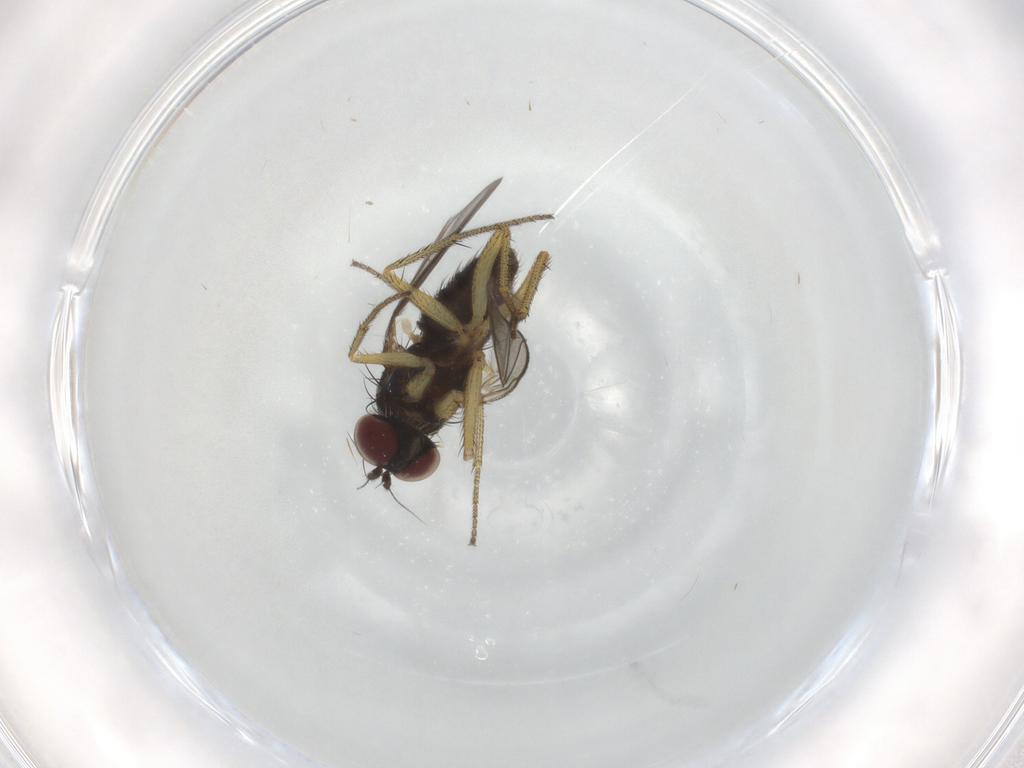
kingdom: Animalia
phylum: Arthropoda
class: Insecta
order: Diptera
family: Dolichopodidae
